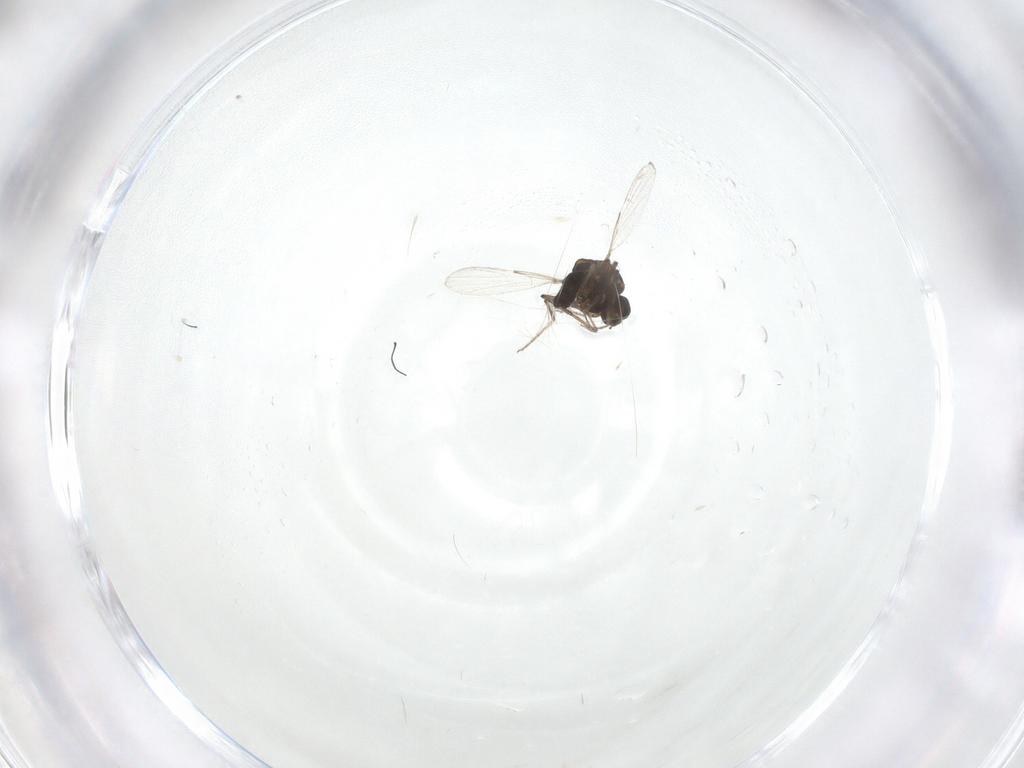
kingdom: Animalia
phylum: Arthropoda
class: Insecta
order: Diptera
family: Ceratopogonidae
